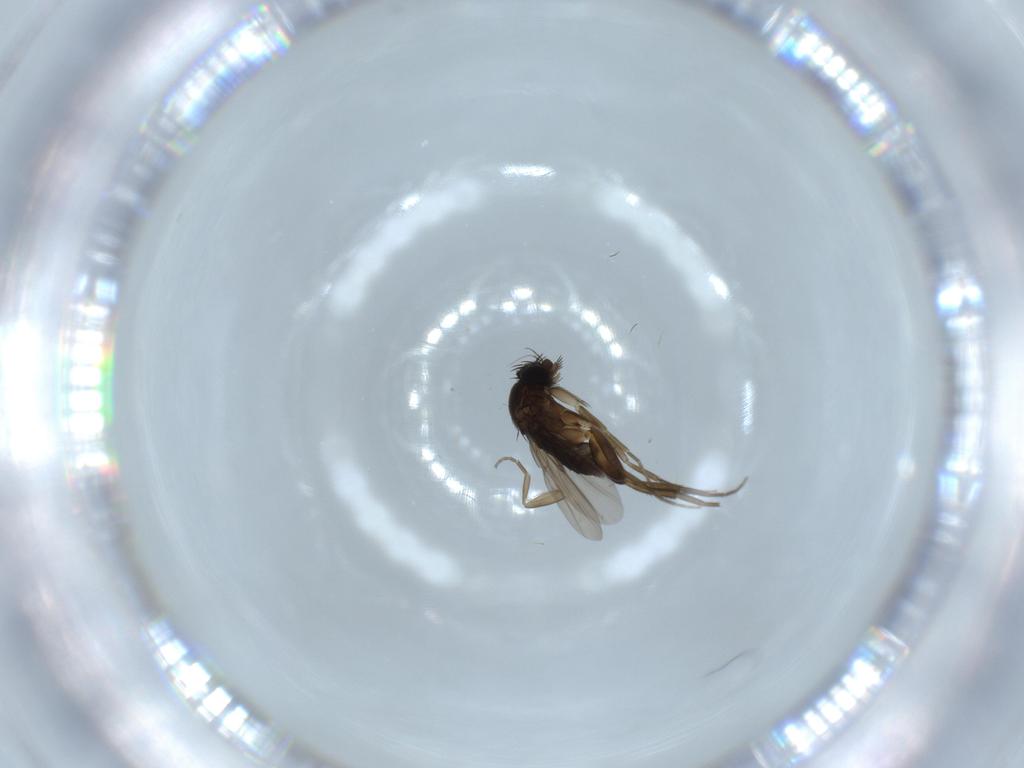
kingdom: Animalia
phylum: Arthropoda
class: Insecta
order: Diptera
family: Phoridae
